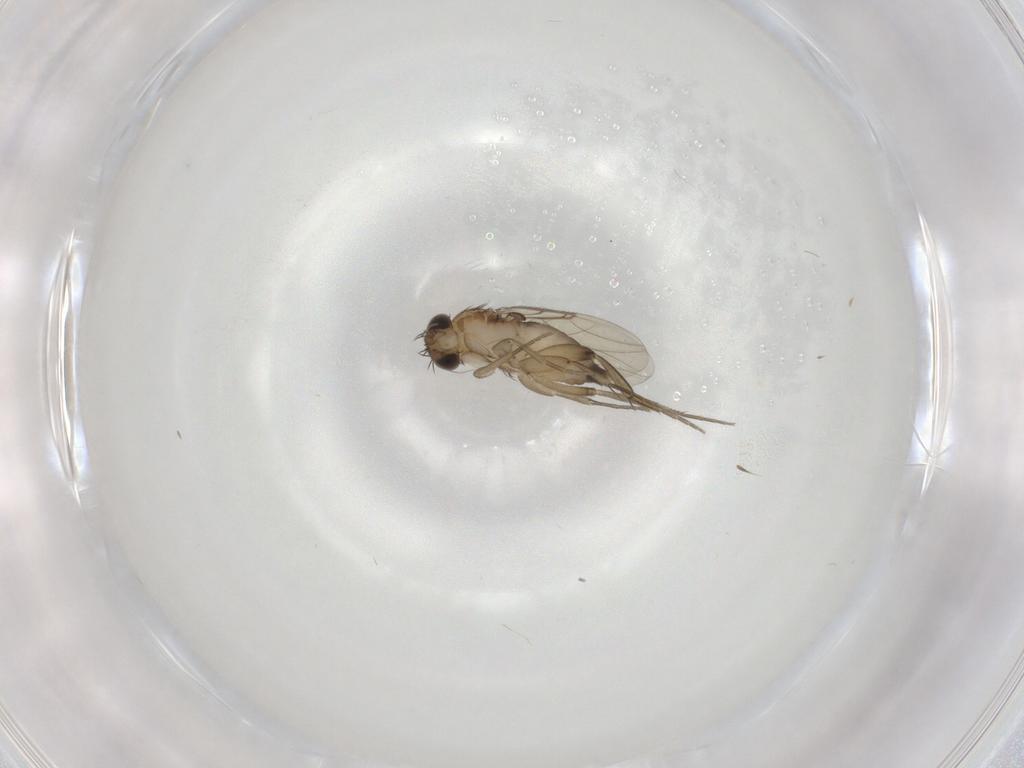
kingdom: Animalia
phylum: Arthropoda
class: Insecta
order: Diptera
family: Phoridae
